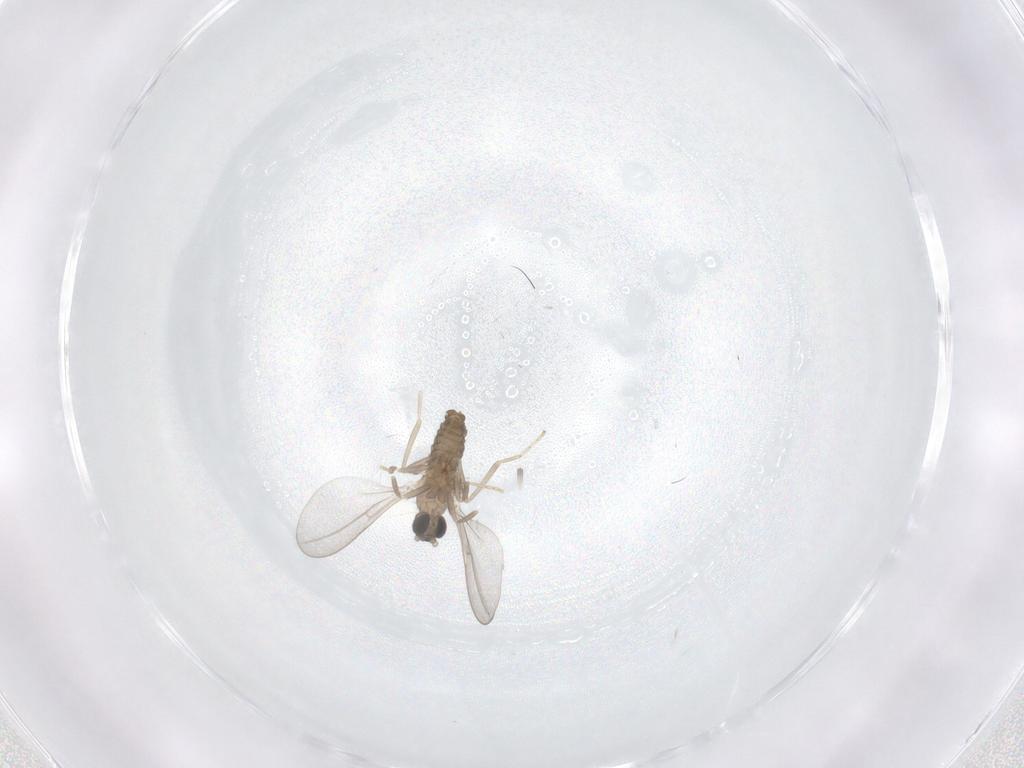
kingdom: Animalia
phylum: Arthropoda
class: Insecta
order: Diptera
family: Cecidomyiidae
